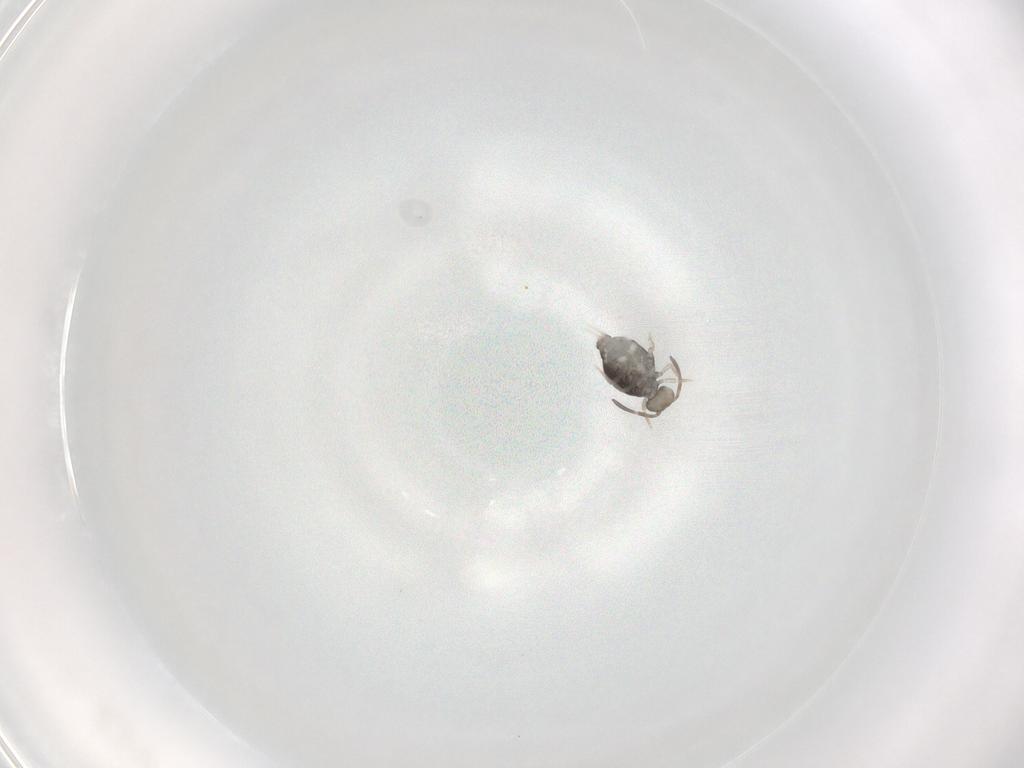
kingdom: Animalia
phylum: Arthropoda
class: Collembola
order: Symphypleona
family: Katiannidae
